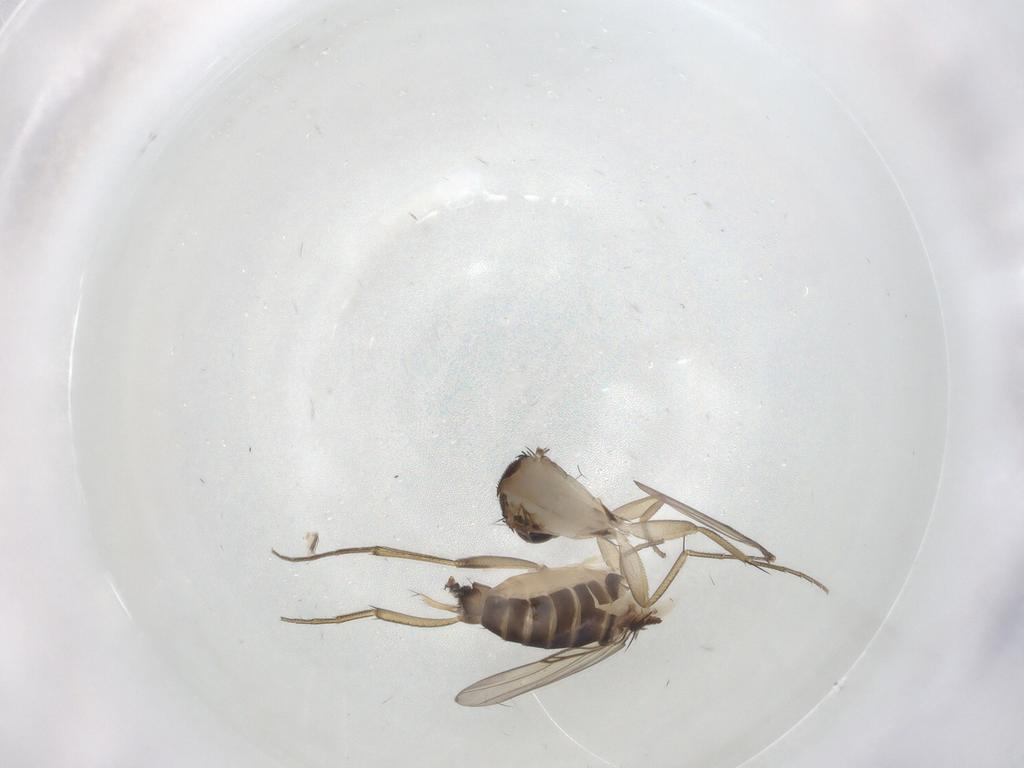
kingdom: Animalia
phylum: Arthropoda
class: Insecta
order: Diptera
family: Phoridae
